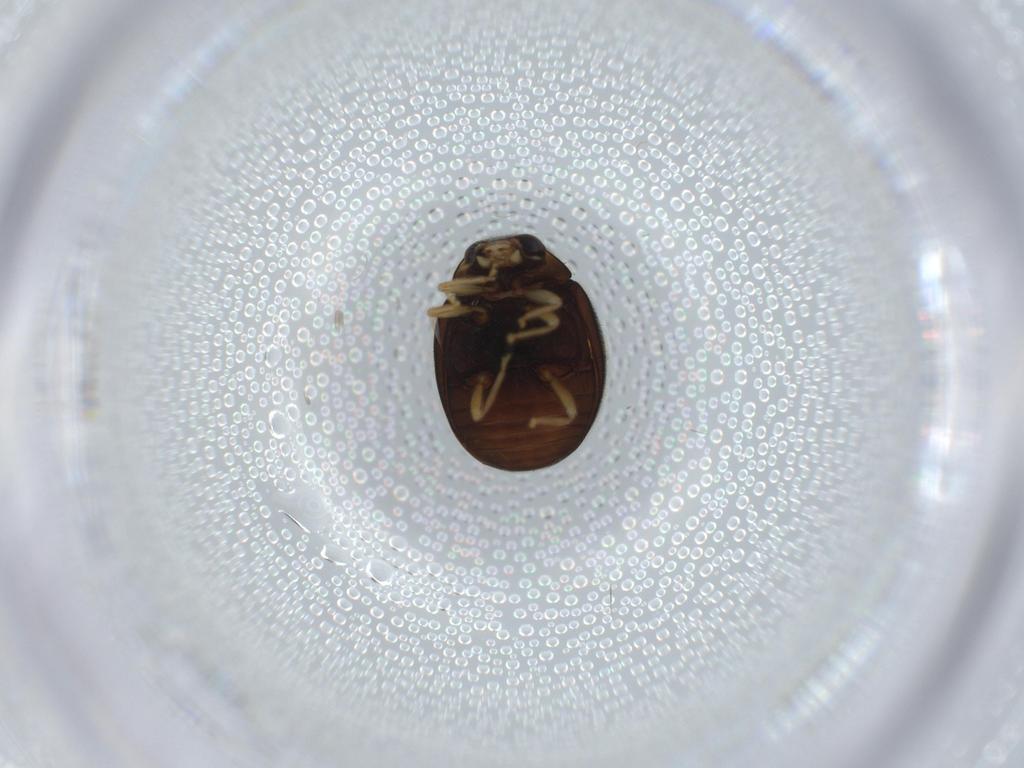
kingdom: Animalia
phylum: Arthropoda
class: Insecta
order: Coleoptera
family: Coccinellidae
